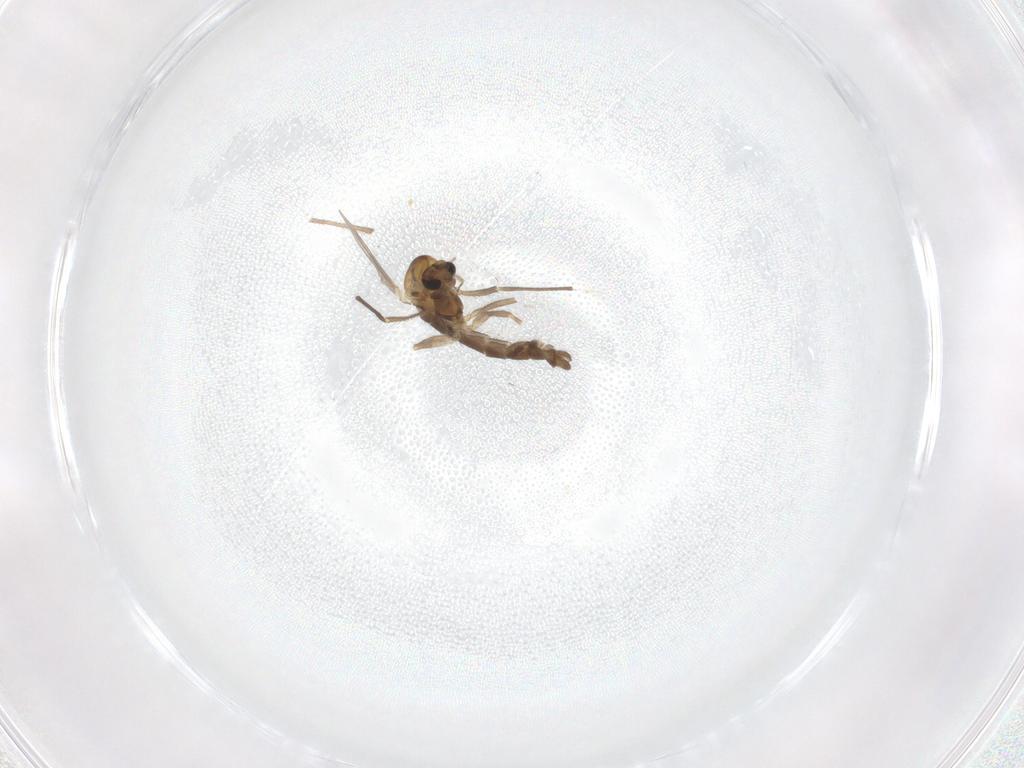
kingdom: Animalia
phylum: Arthropoda
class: Insecta
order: Diptera
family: Chironomidae
